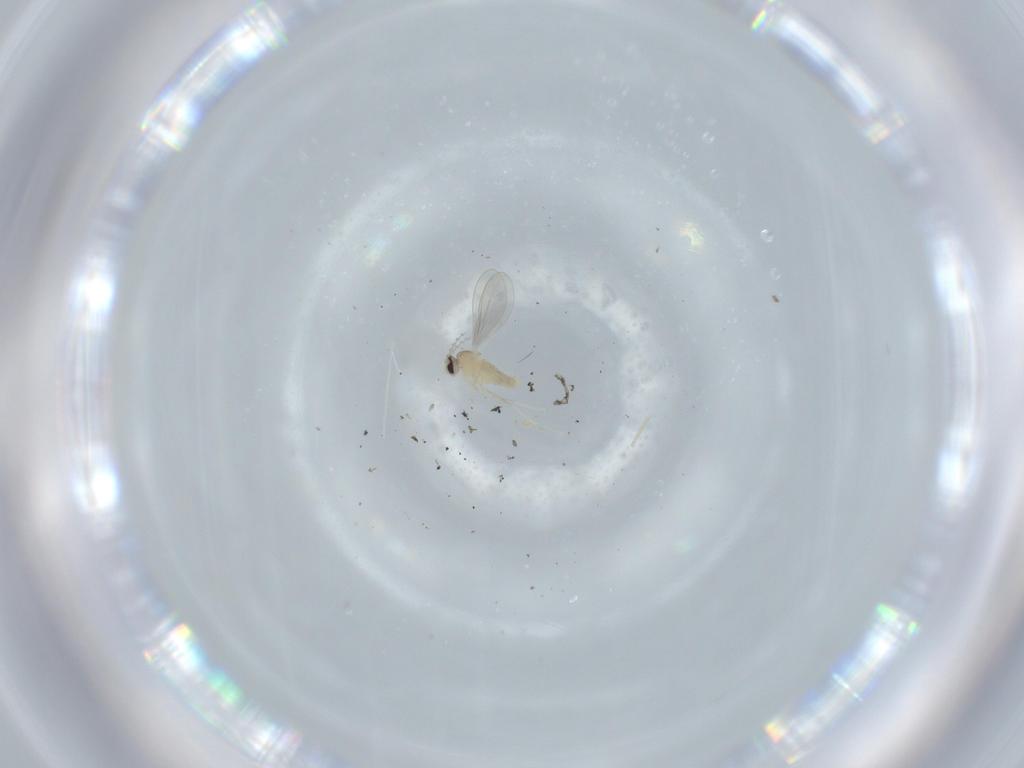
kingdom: Animalia
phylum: Arthropoda
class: Insecta
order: Diptera
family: Cecidomyiidae
